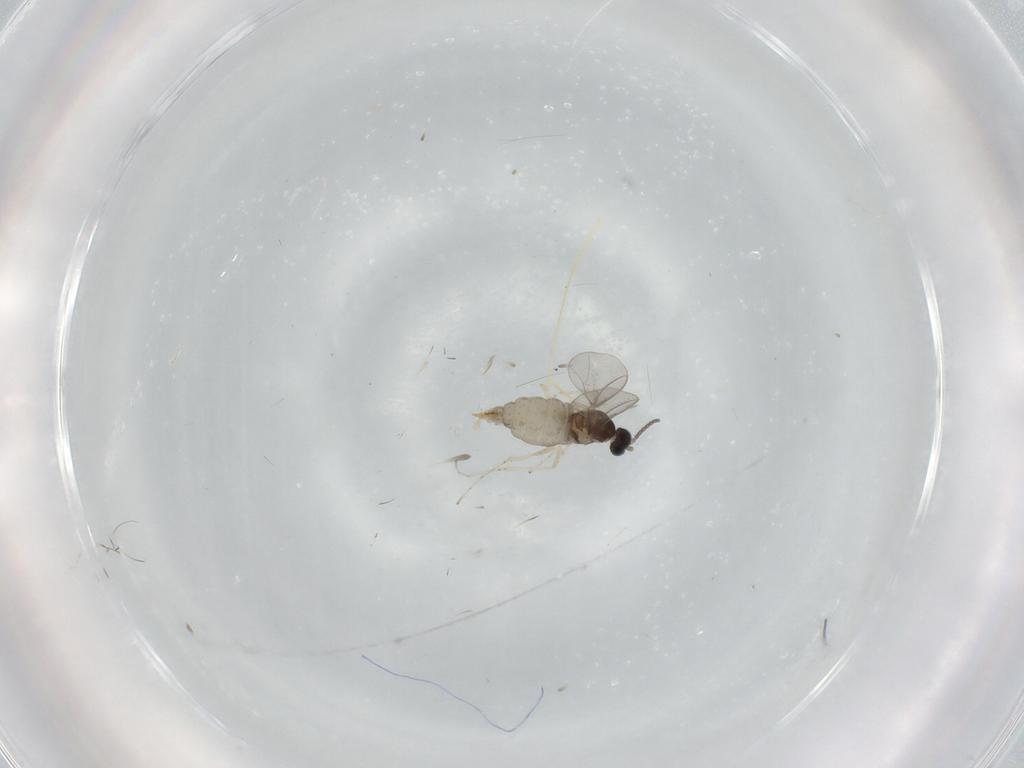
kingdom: Animalia
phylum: Arthropoda
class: Insecta
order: Diptera
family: Cecidomyiidae
